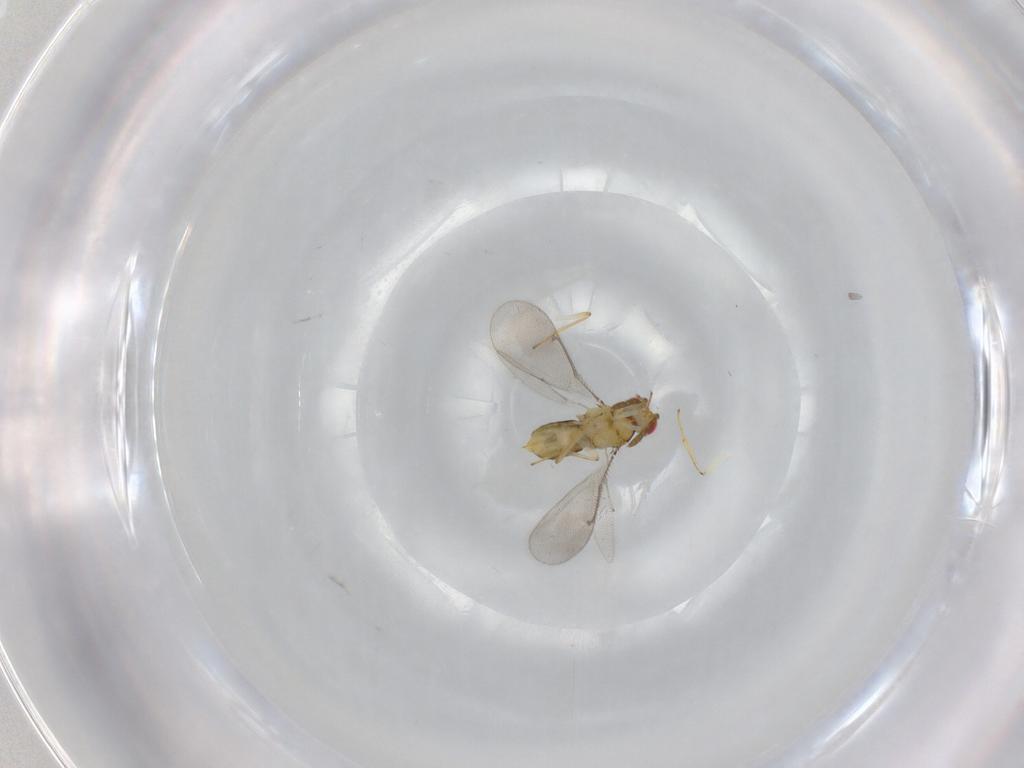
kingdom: Animalia
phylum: Arthropoda
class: Insecta
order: Hymenoptera
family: Aphelinidae
